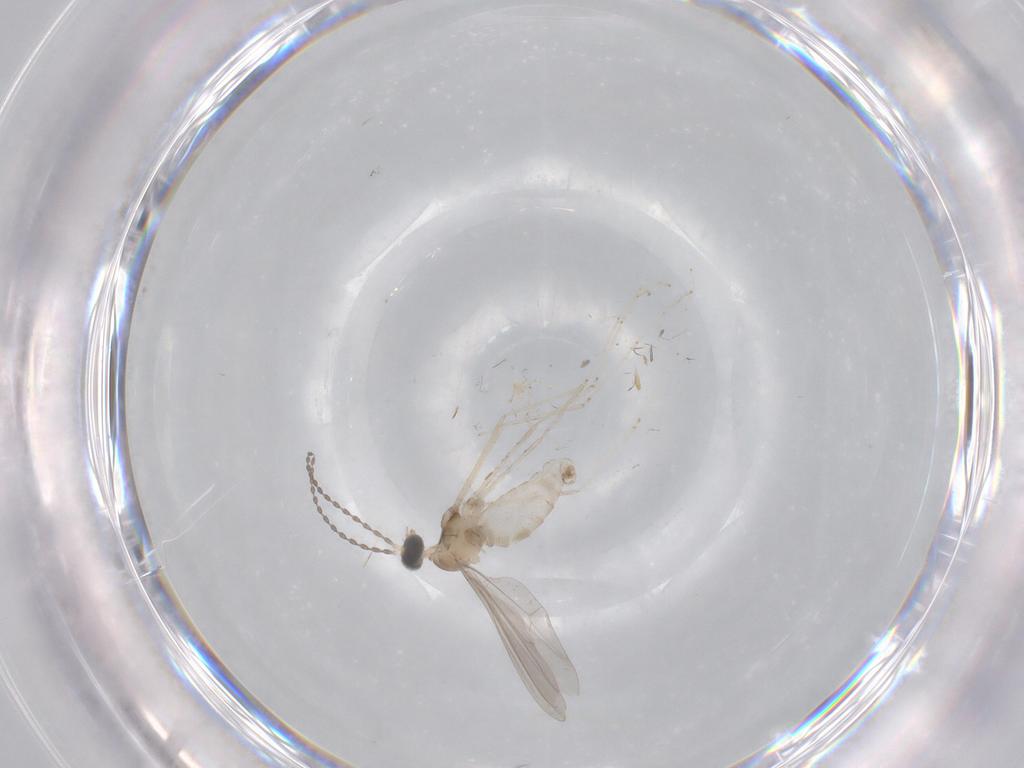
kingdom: Animalia
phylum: Arthropoda
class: Insecta
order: Diptera
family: Cecidomyiidae
